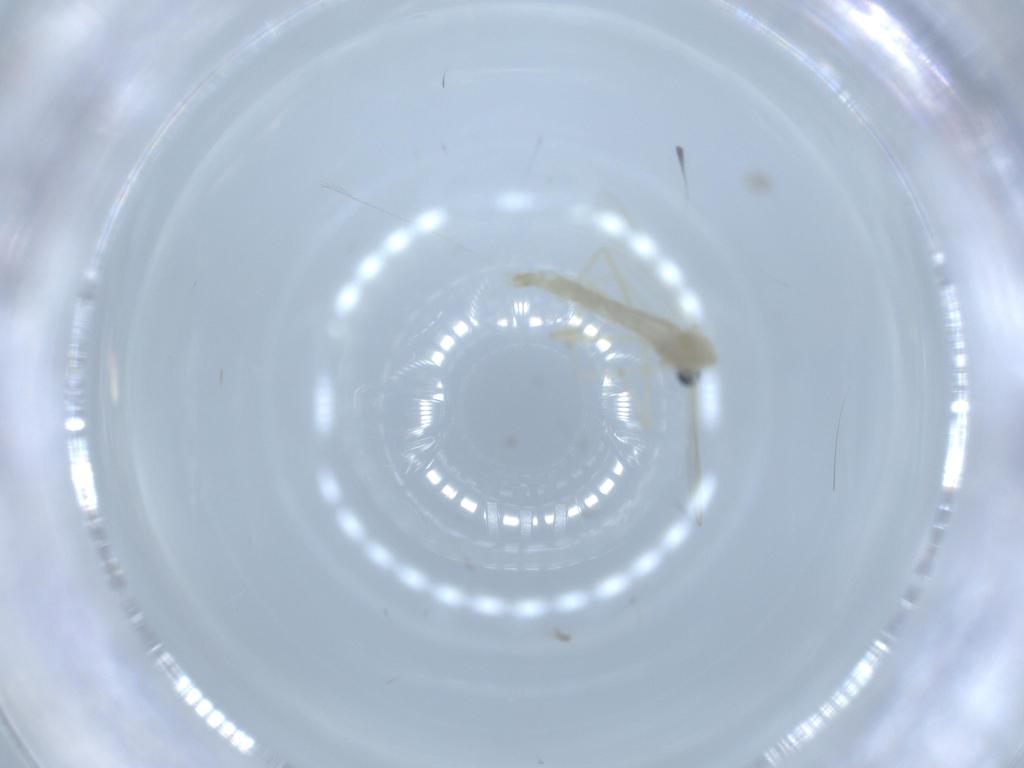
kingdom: Animalia
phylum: Arthropoda
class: Insecta
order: Diptera
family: Chironomidae
